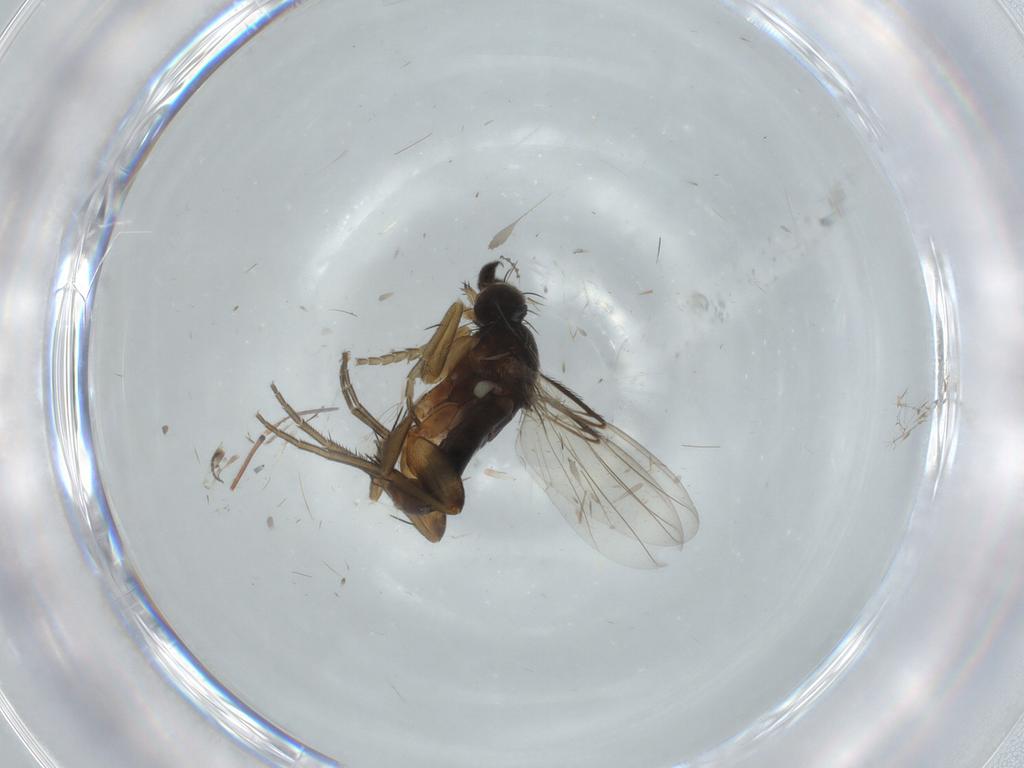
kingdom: Animalia
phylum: Arthropoda
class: Insecta
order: Diptera
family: Phoridae
